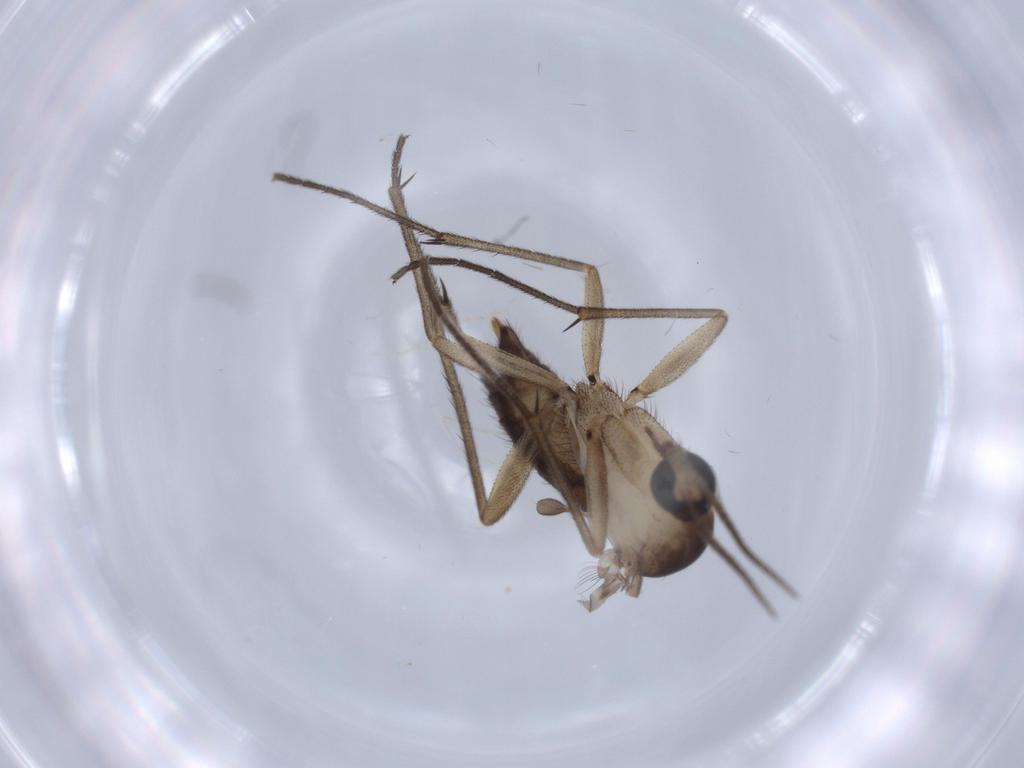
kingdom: Animalia
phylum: Arthropoda
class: Insecta
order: Diptera
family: Diadocidiidae
